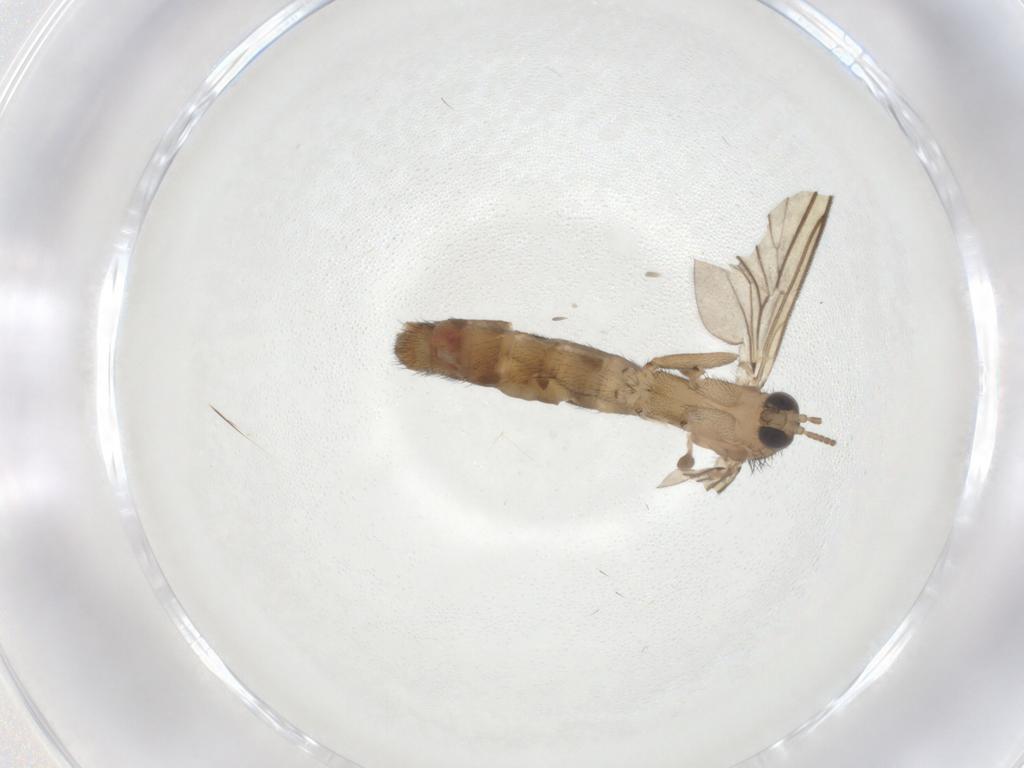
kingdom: Animalia
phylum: Arthropoda
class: Insecta
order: Diptera
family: Keroplatidae
